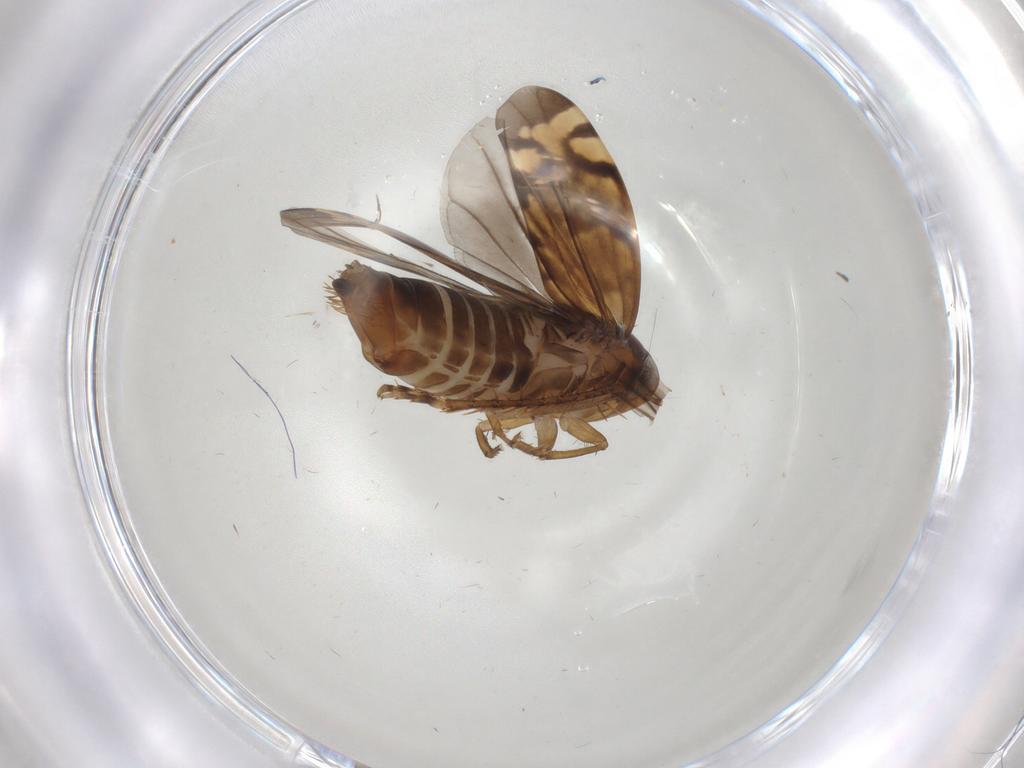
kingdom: Animalia
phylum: Arthropoda
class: Insecta
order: Hemiptera
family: Cicadellidae
